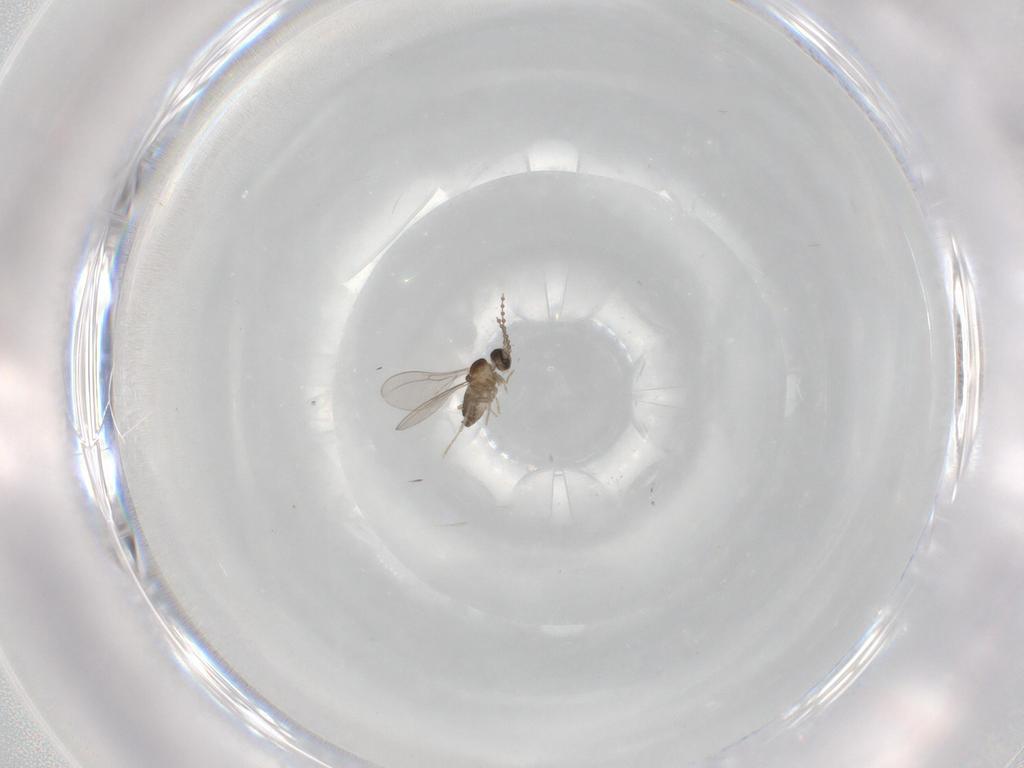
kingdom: Animalia
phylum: Arthropoda
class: Insecta
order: Diptera
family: Cecidomyiidae
